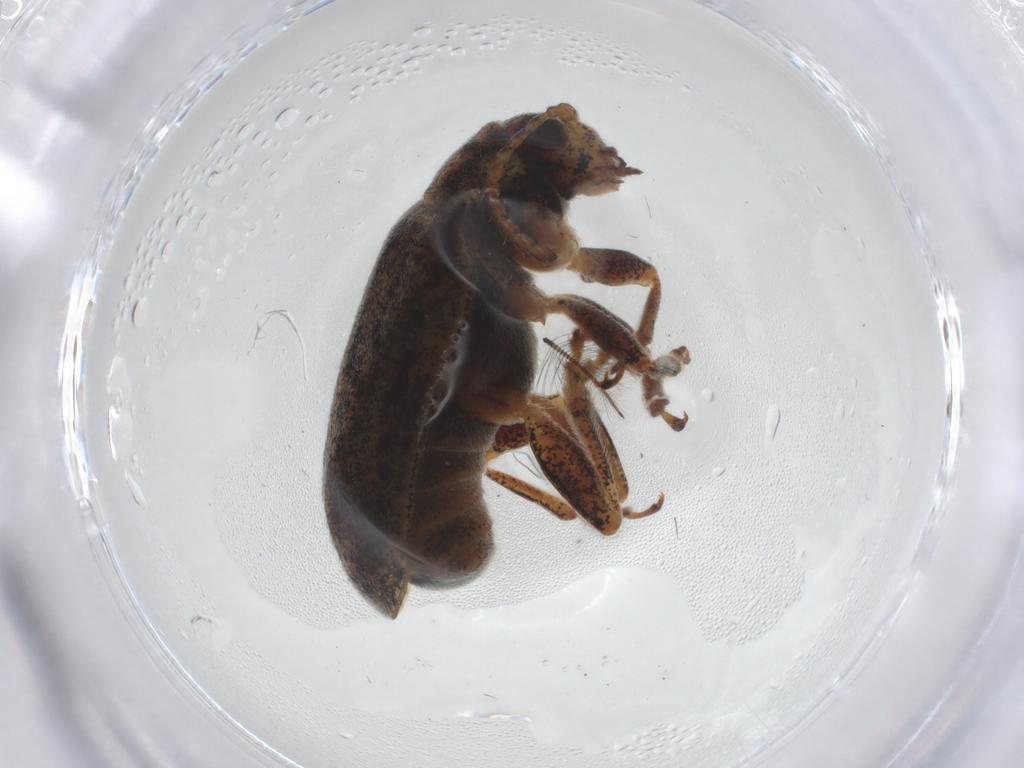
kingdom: Animalia
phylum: Arthropoda
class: Insecta
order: Coleoptera
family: Chrysomelidae
